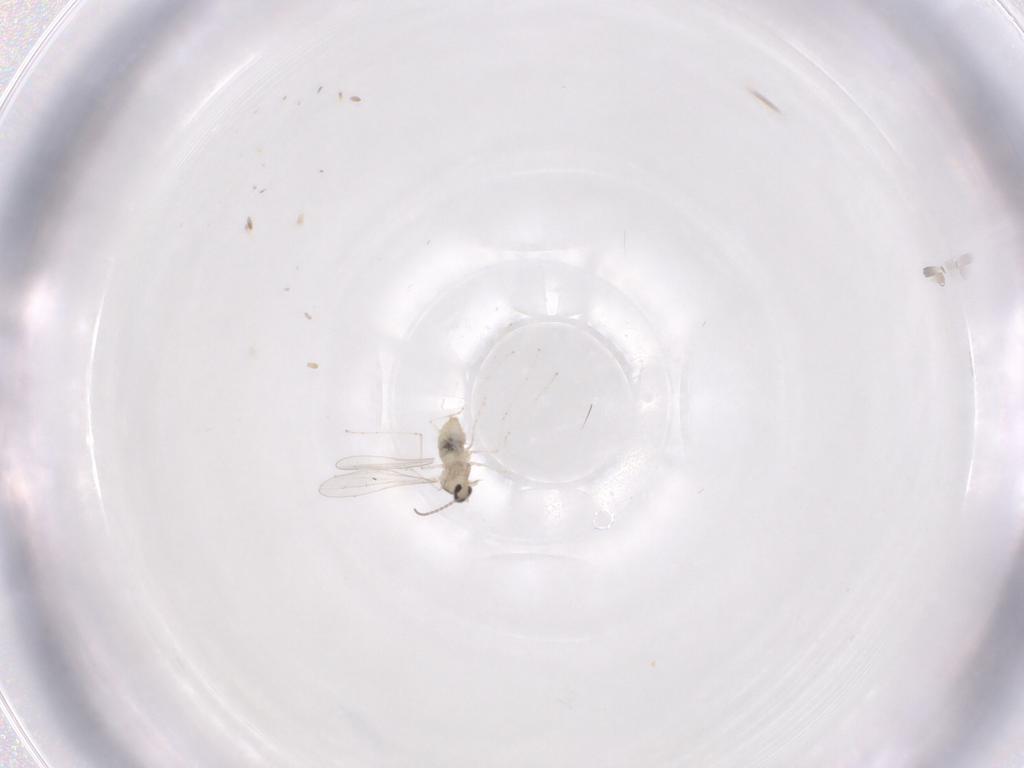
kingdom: Animalia
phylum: Arthropoda
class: Insecta
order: Diptera
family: Cecidomyiidae
